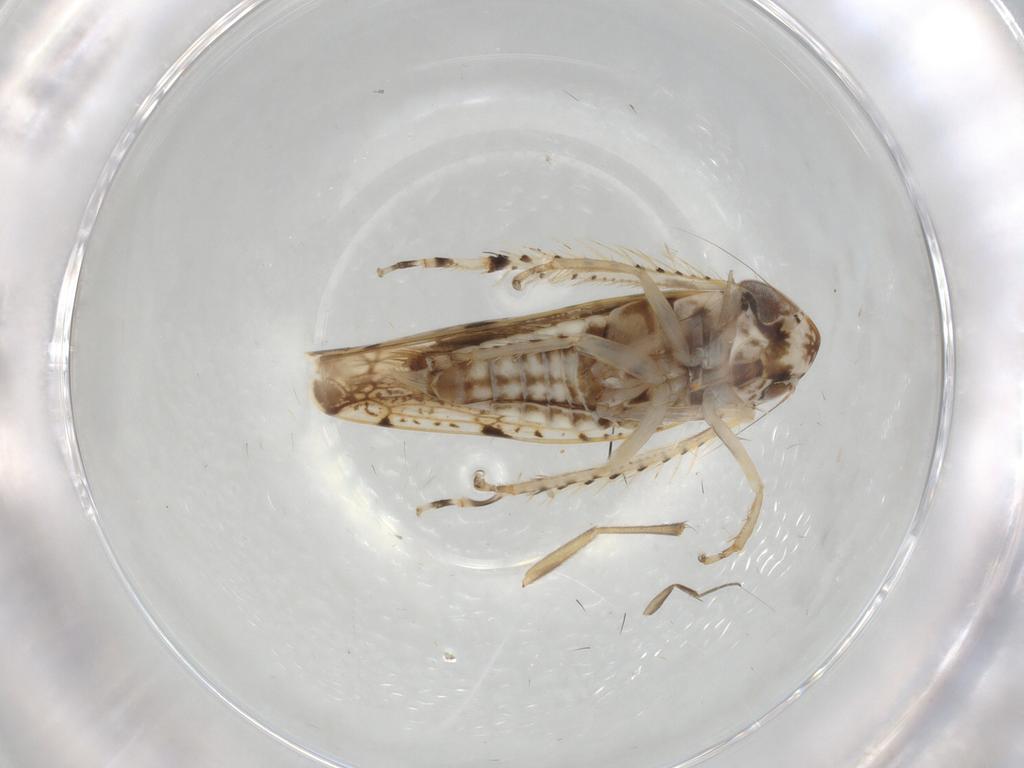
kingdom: Animalia
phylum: Arthropoda
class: Insecta
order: Hemiptera
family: Cicadellidae
